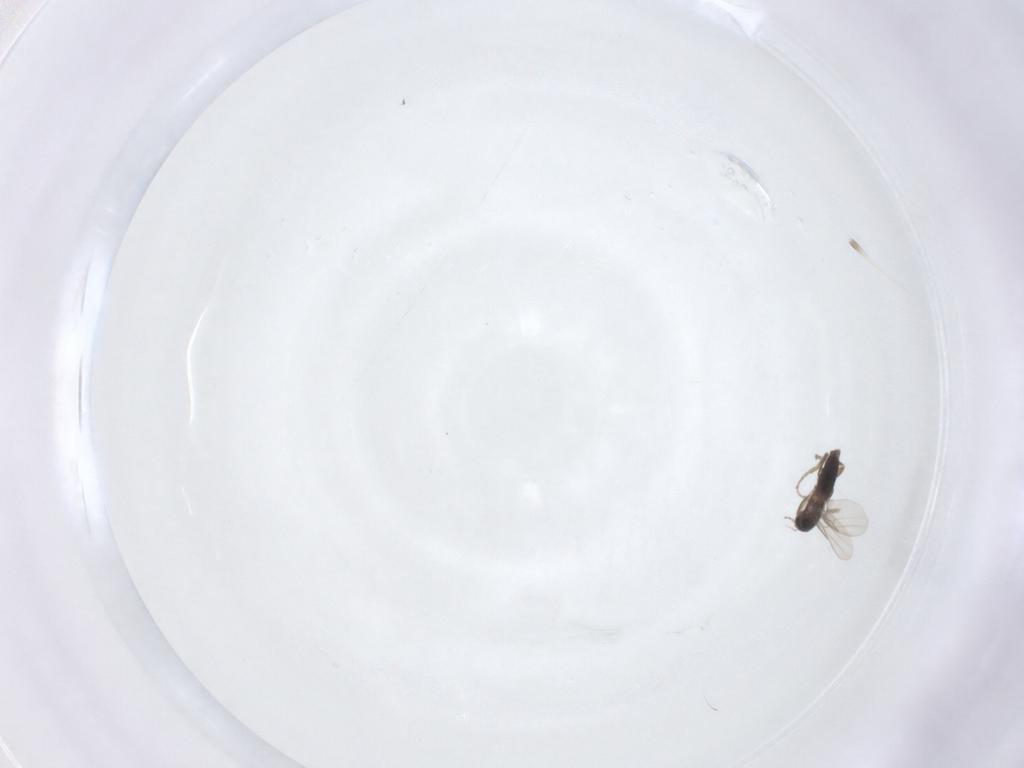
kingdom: Animalia
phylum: Arthropoda
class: Insecta
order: Diptera
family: Phoridae
